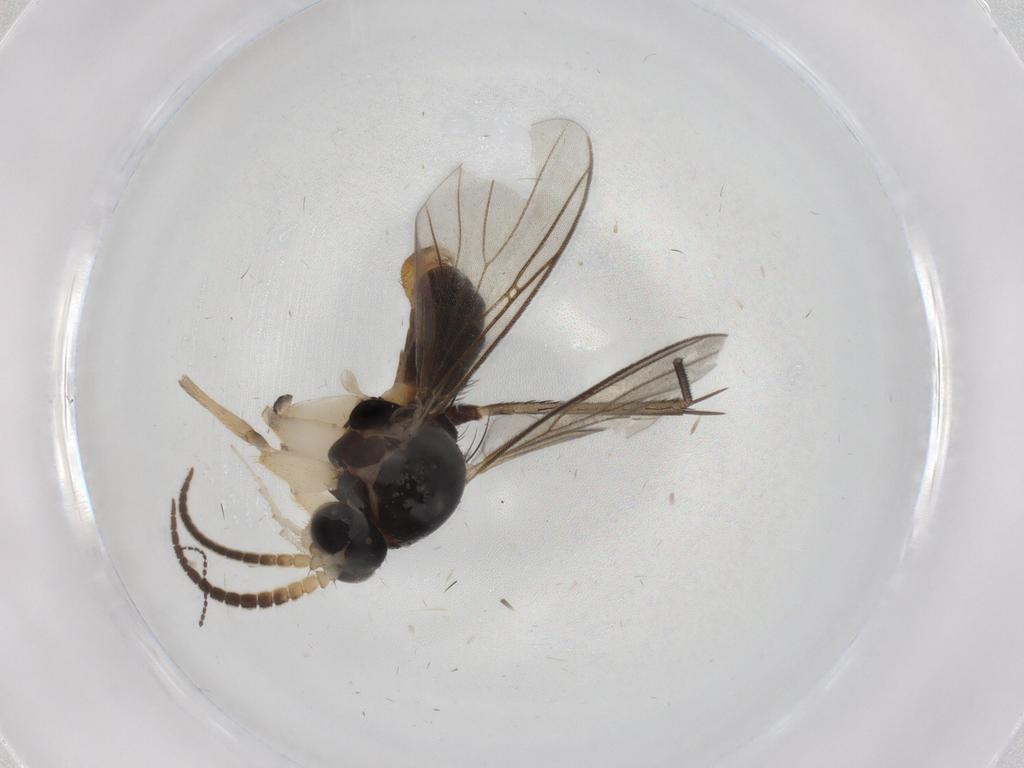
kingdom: Animalia
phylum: Arthropoda
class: Insecta
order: Diptera
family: Mycetophilidae
